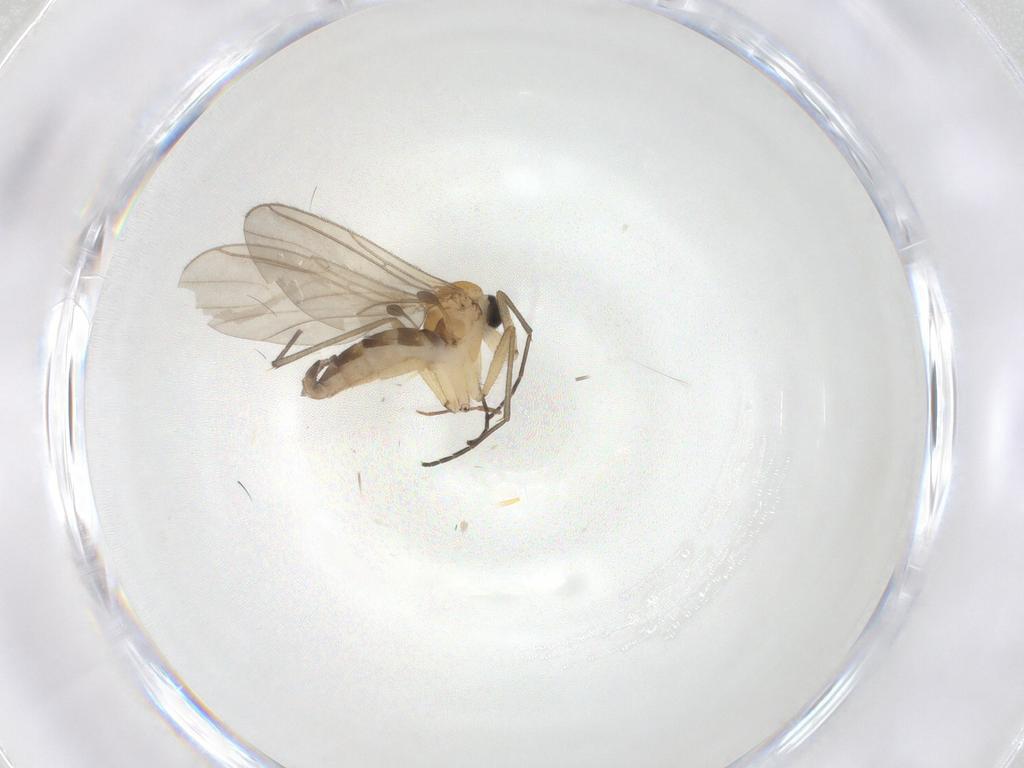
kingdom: Animalia
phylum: Arthropoda
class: Insecta
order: Diptera
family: Sciaridae
